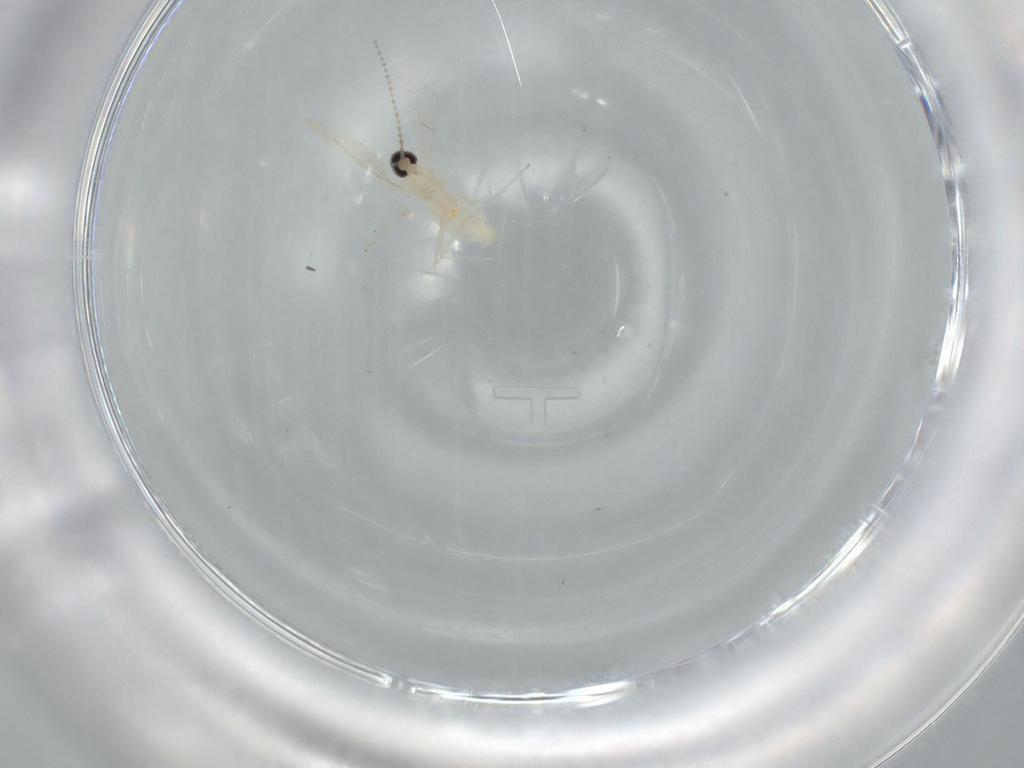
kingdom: Animalia
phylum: Arthropoda
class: Insecta
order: Diptera
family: Cecidomyiidae
